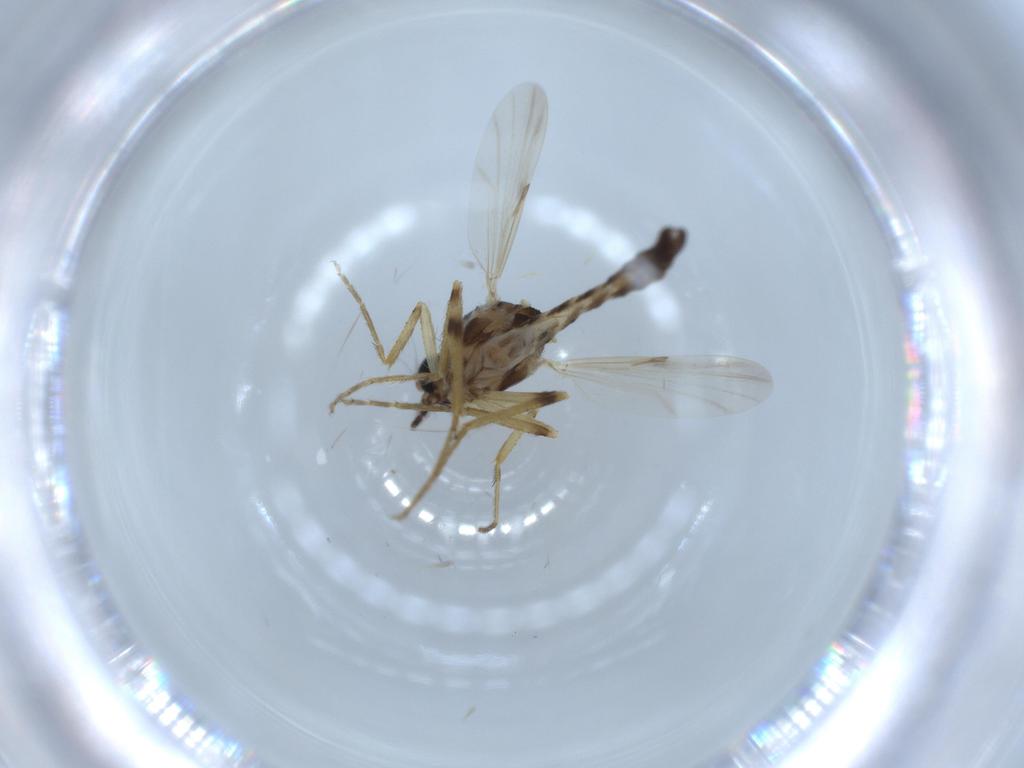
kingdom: Animalia
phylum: Arthropoda
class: Insecta
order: Diptera
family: Ceratopogonidae
